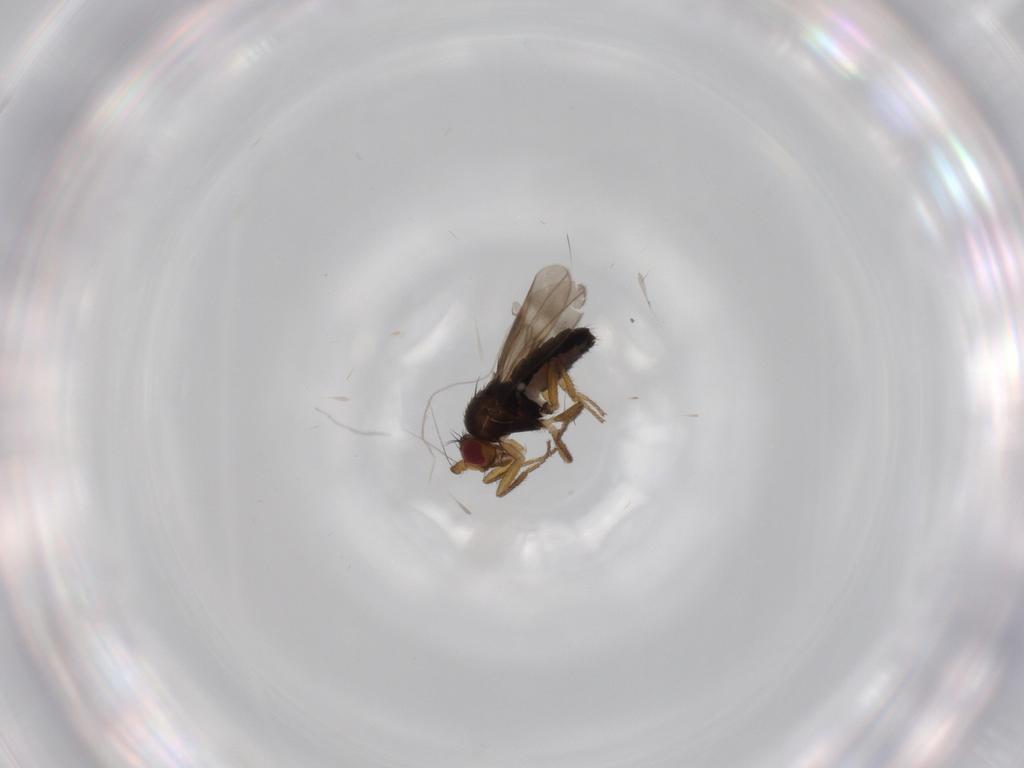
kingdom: Animalia
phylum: Arthropoda
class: Insecta
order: Diptera
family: Sphaeroceridae
